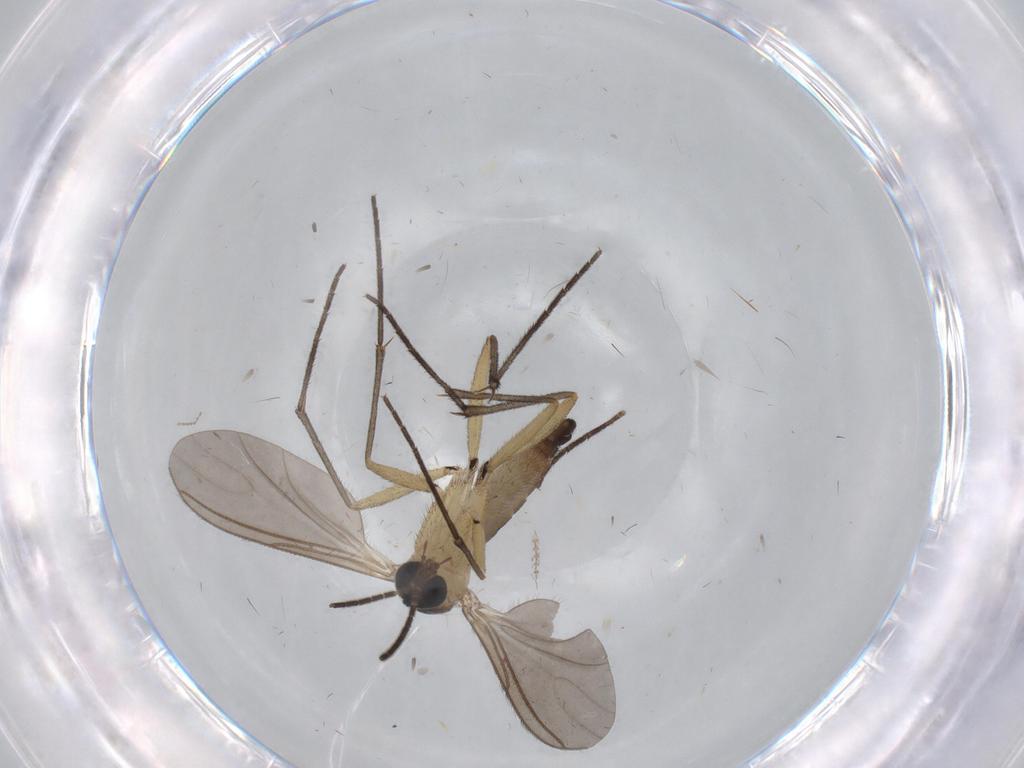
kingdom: Animalia
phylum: Arthropoda
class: Insecta
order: Diptera
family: Sciaridae
